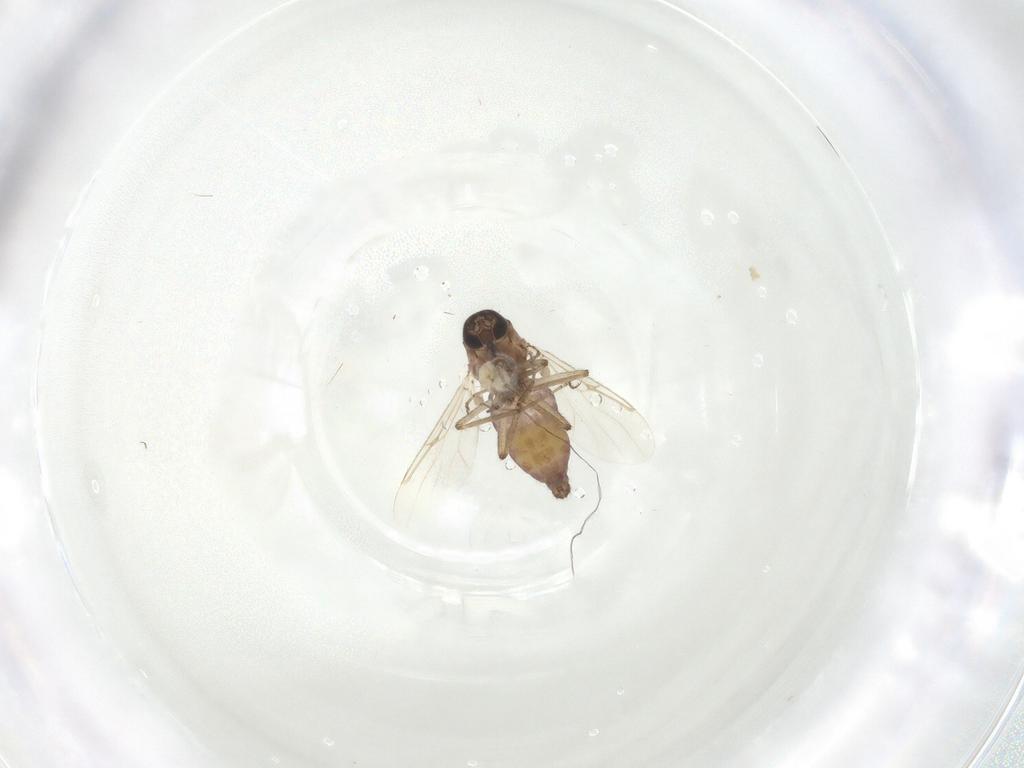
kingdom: Animalia
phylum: Arthropoda
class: Insecta
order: Diptera
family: Ceratopogonidae
